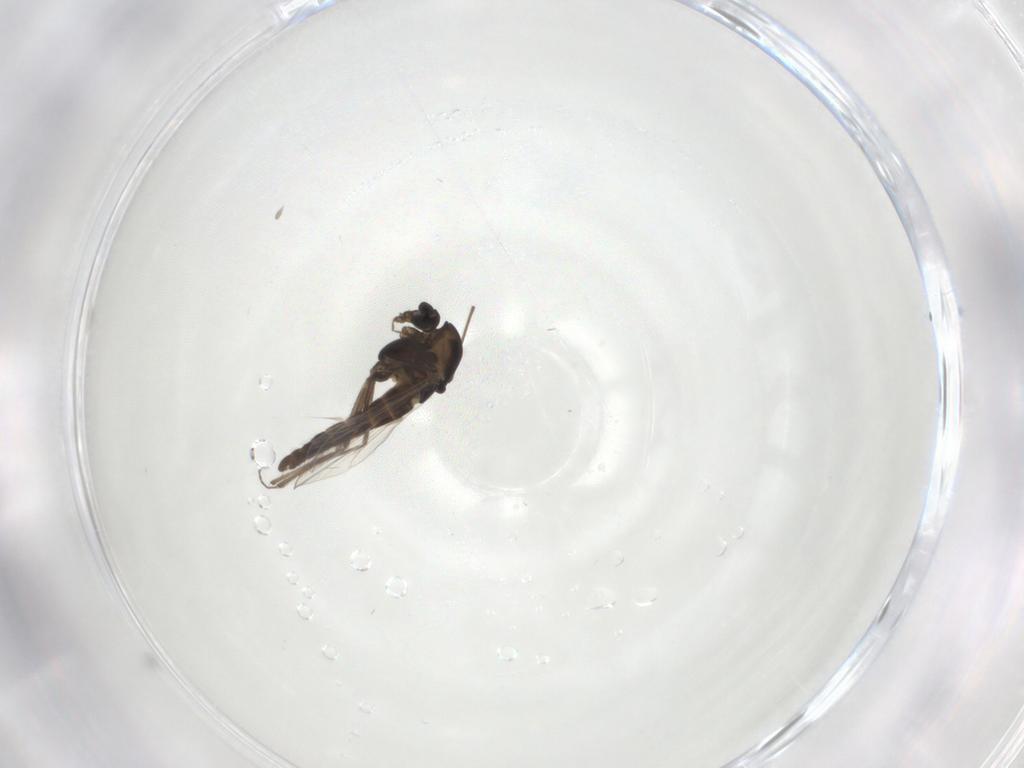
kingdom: Animalia
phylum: Arthropoda
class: Insecta
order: Diptera
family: Chironomidae
